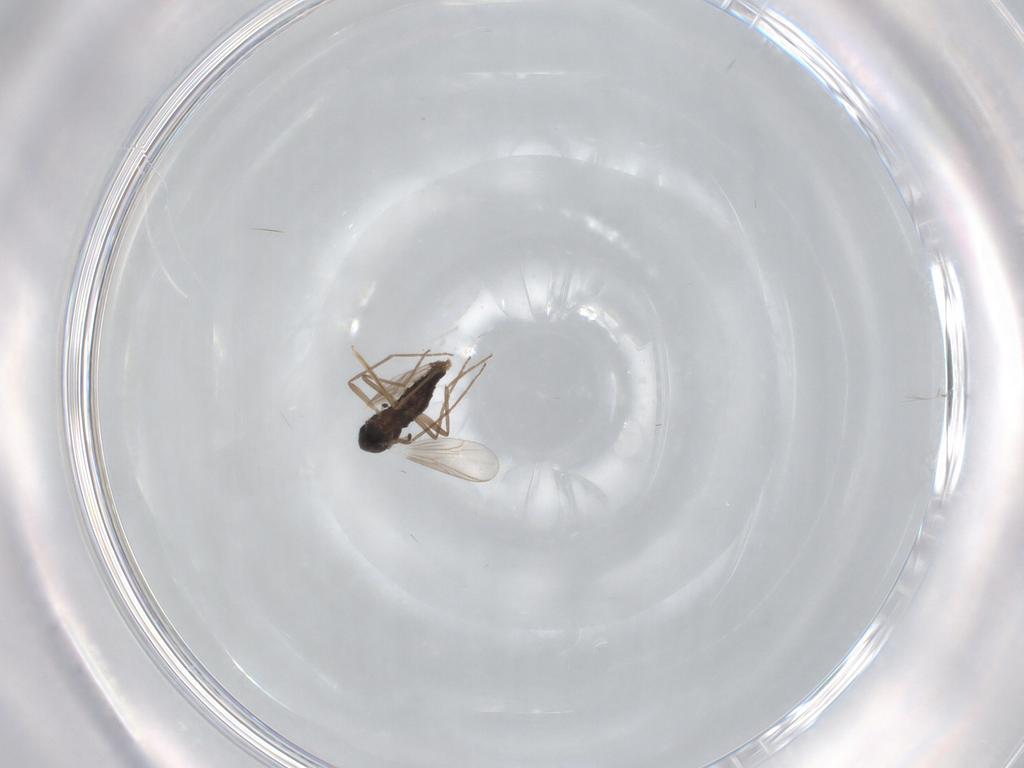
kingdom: Animalia
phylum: Arthropoda
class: Insecta
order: Diptera
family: Chironomidae
